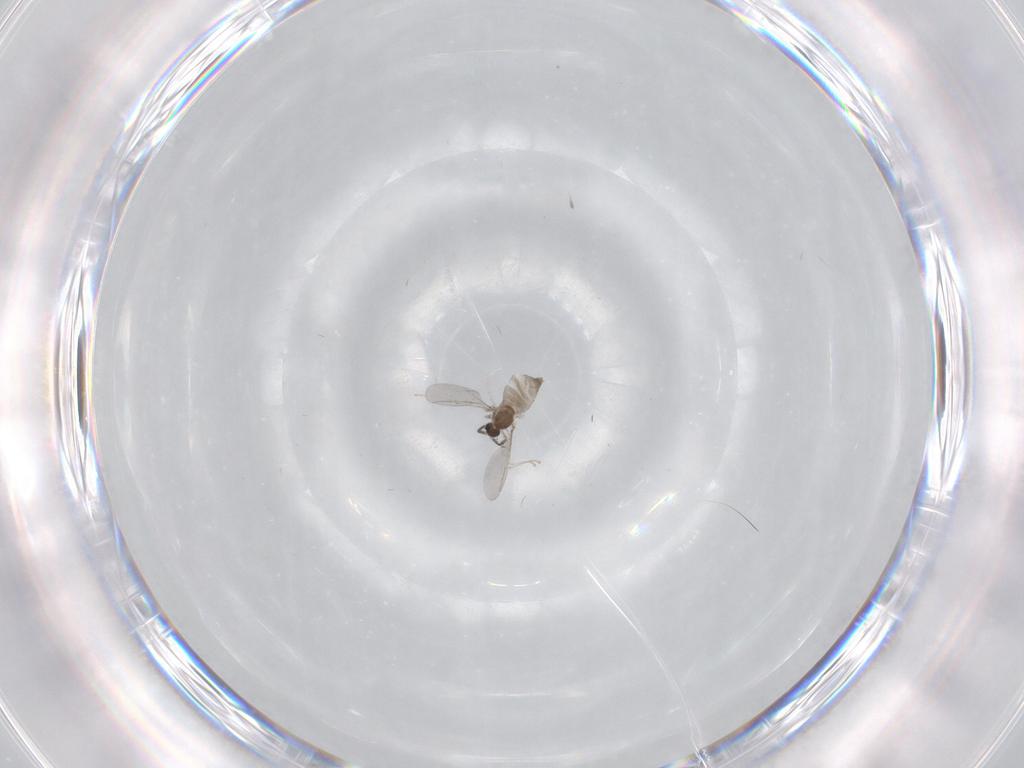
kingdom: Animalia
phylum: Arthropoda
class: Insecta
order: Diptera
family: Cecidomyiidae
